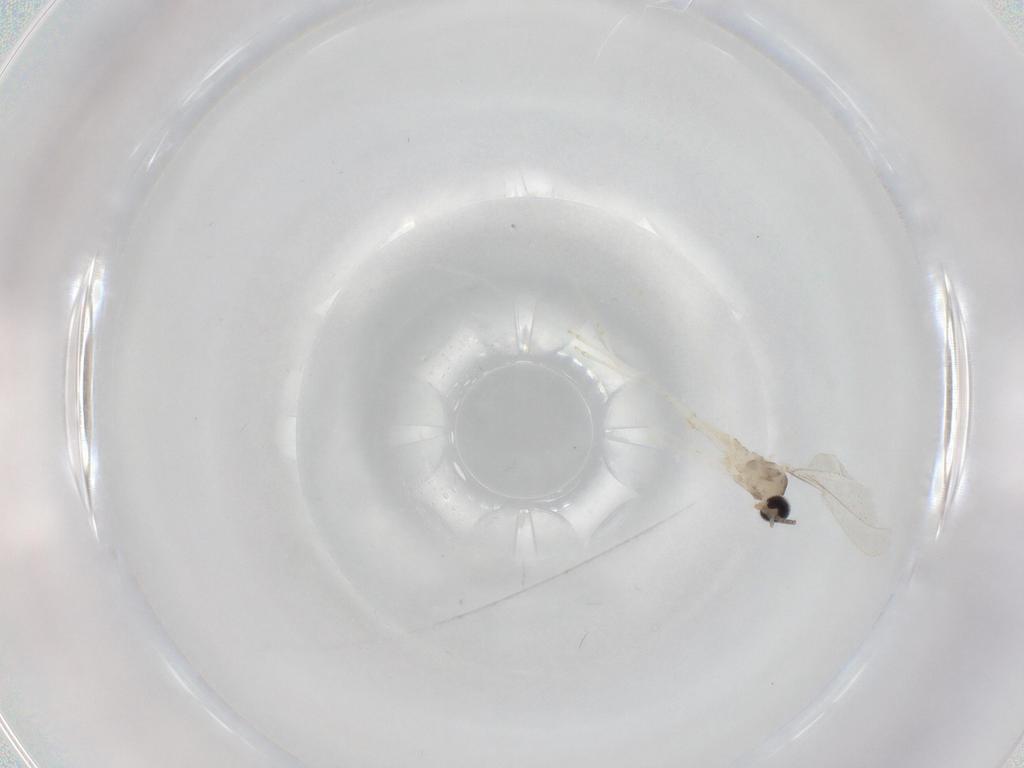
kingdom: Animalia
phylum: Arthropoda
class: Insecta
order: Diptera
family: Cecidomyiidae
